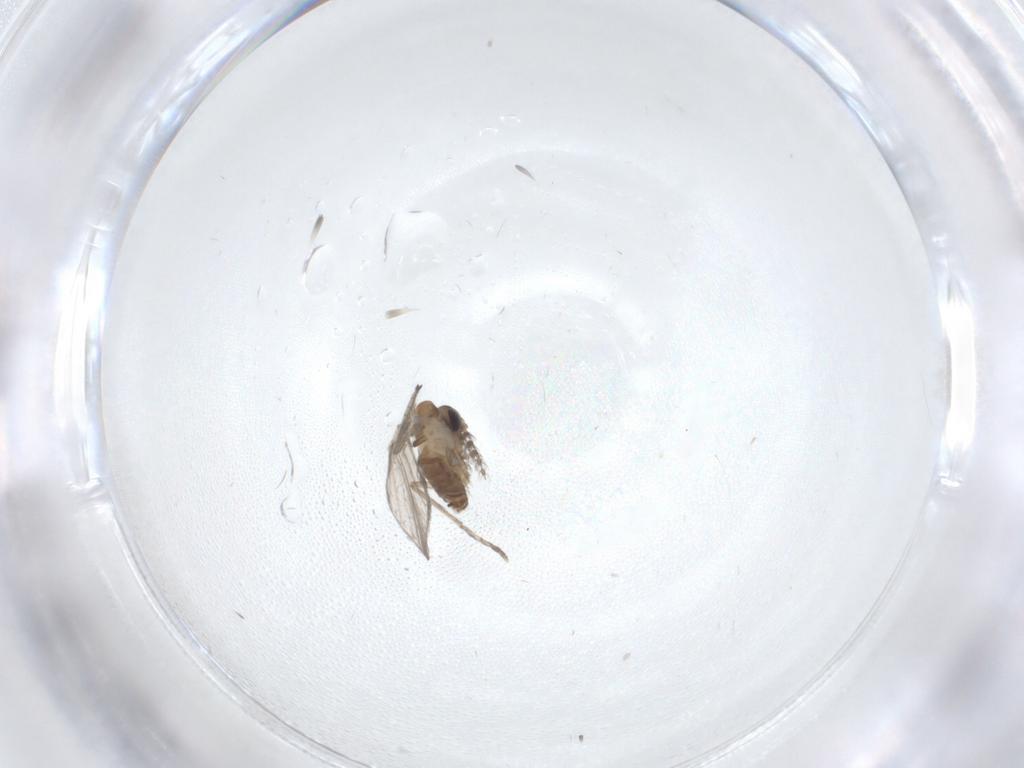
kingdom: Animalia
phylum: Arthropoda
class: Insecta
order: Diptera
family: Psychodidae
